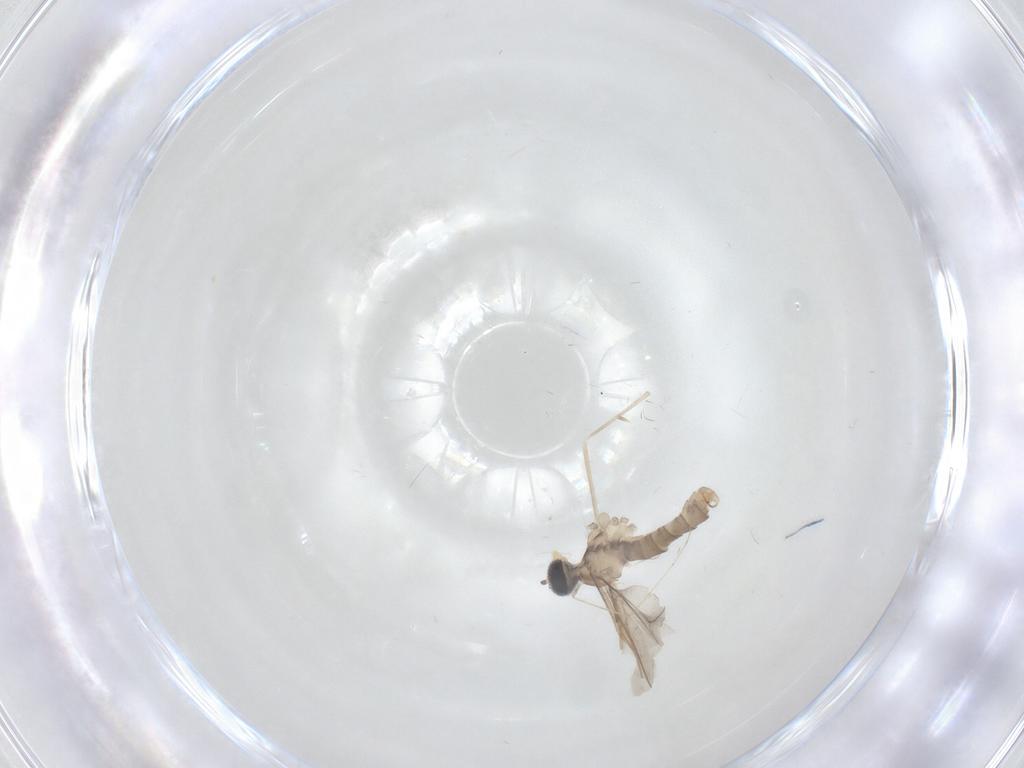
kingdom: Animalia
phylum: Arthropoda
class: Insecta
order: Diptera
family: Cecidomyiidae
